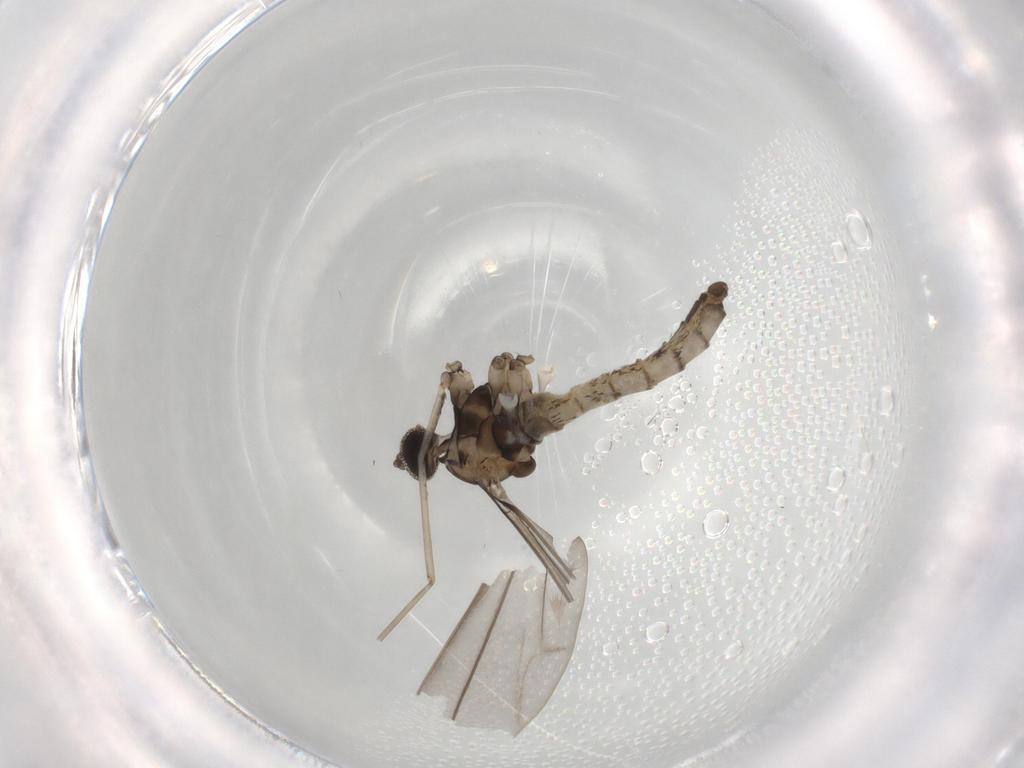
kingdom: Animalia
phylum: Arthropoda
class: Insecta
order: Diptera
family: Cecidomyiidae
